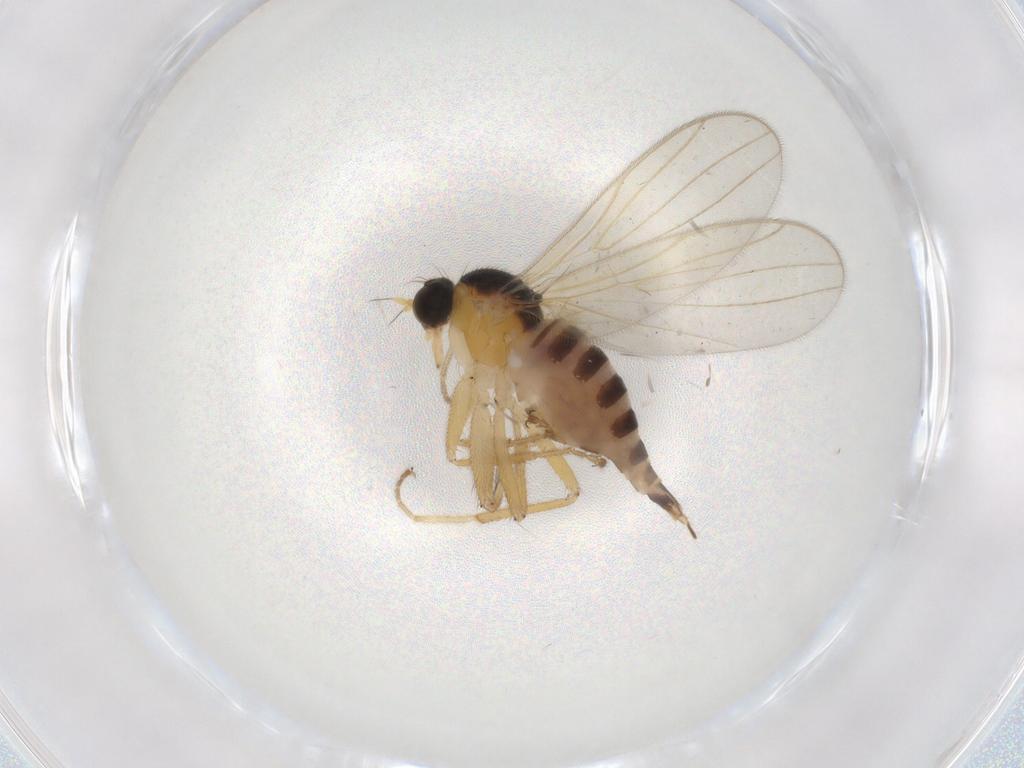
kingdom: Animalia
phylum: Arthropoda
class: Insecta
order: Diptera
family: Hybotidae
